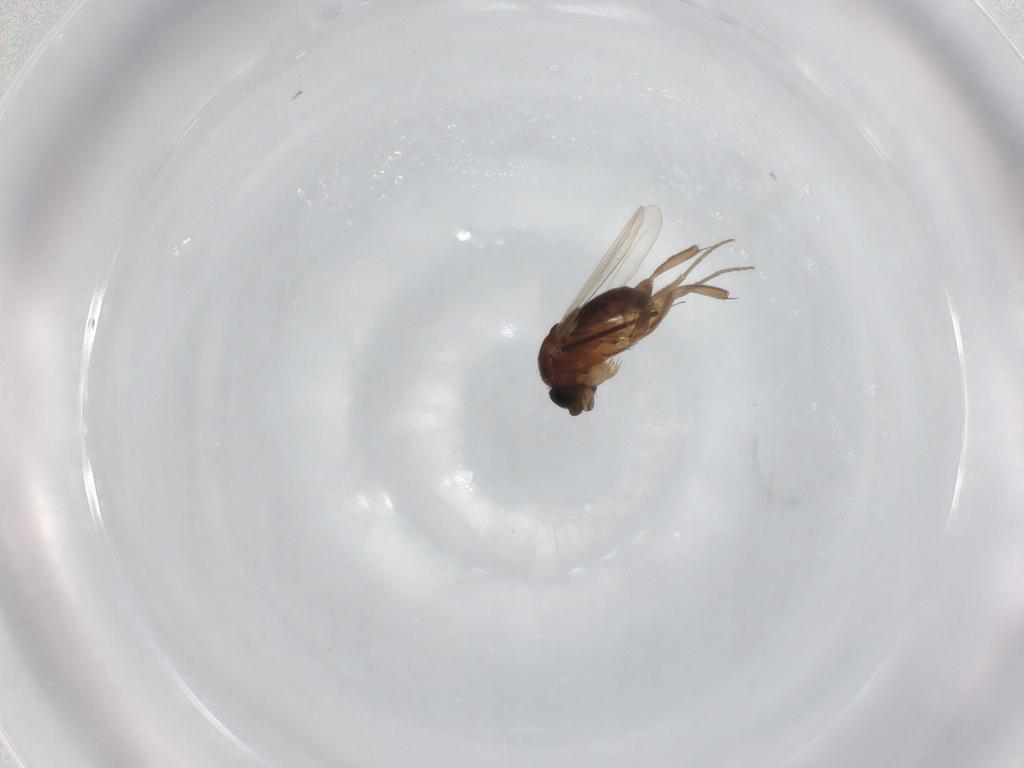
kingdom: Animalia
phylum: Arthropoda
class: Insecta
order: Diptera
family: Phoridae
